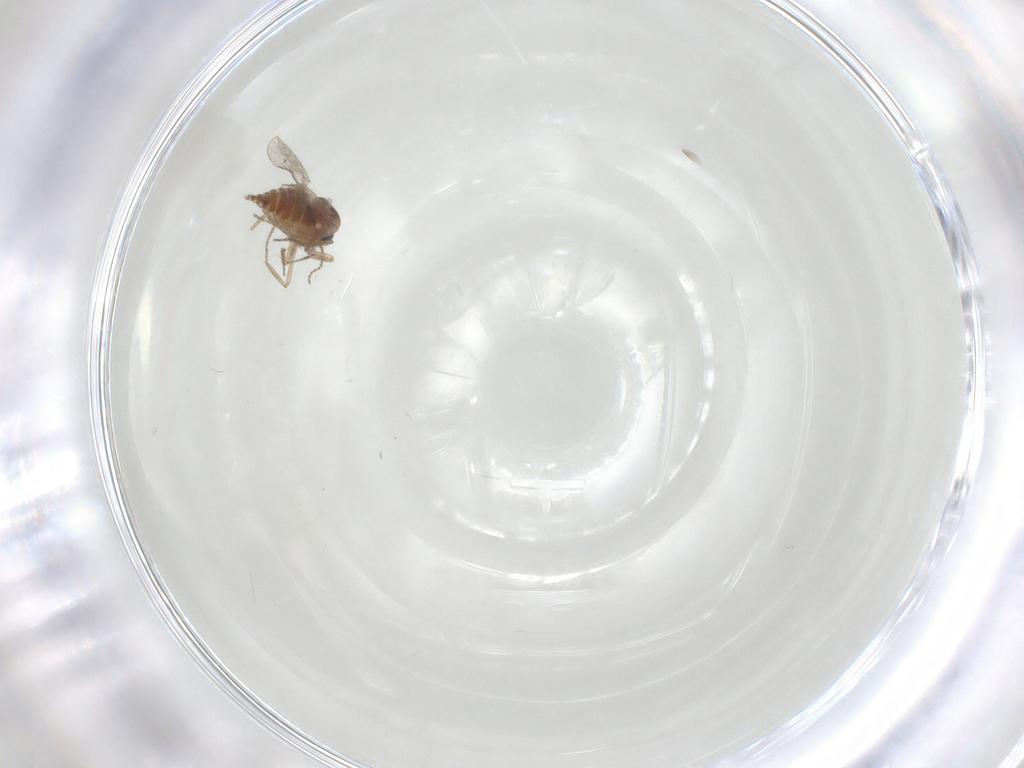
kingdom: Animalia
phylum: Arthropoda
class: Insecta
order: Diptera
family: Ceratopogonidae
